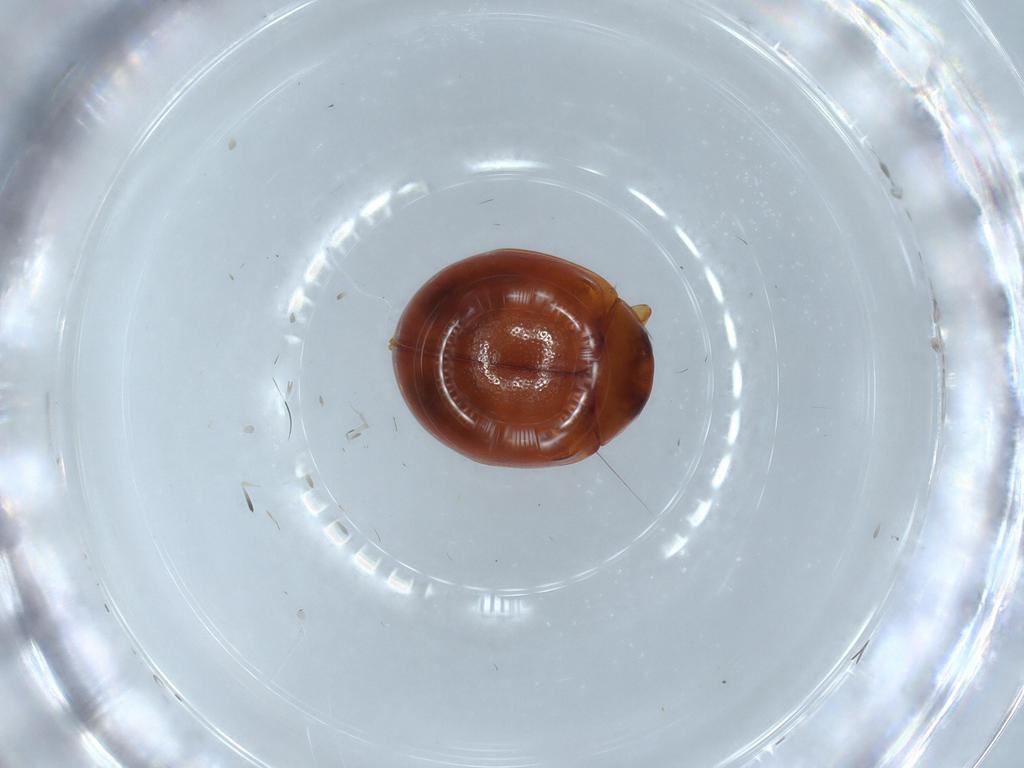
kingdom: Animalia
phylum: Arthropoda
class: Insecta
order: Coleoptera
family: Coccinellidae
